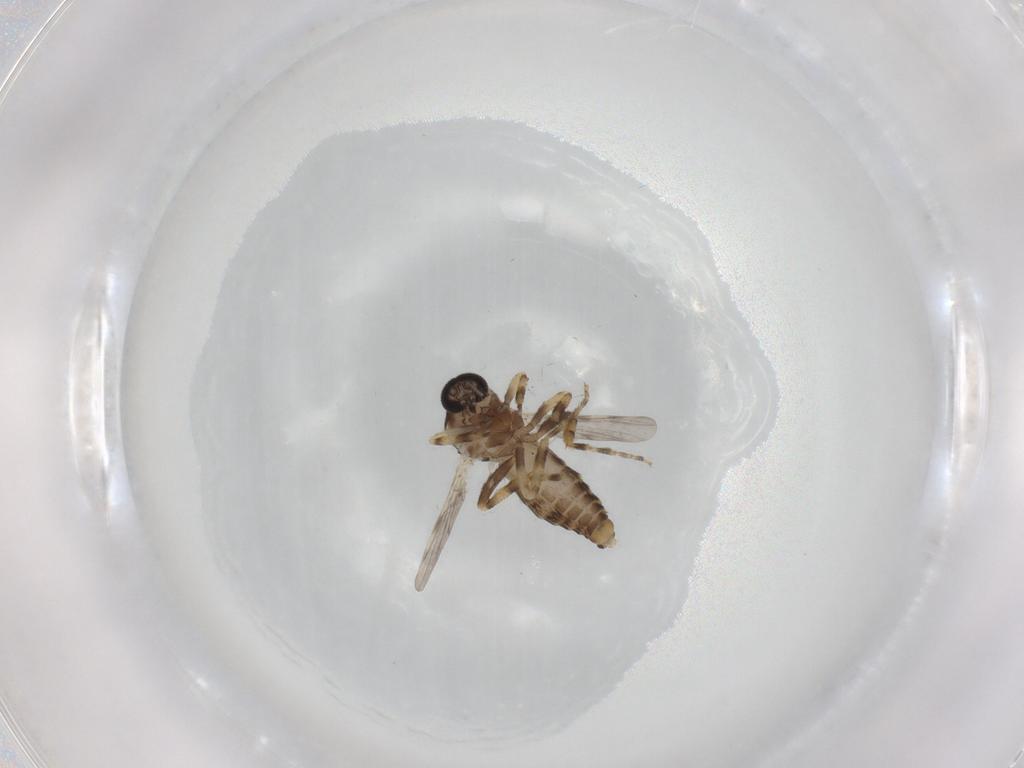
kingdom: Animalia
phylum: Arthropoda
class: Insecta
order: Diptera
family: Ceratopogonidae
